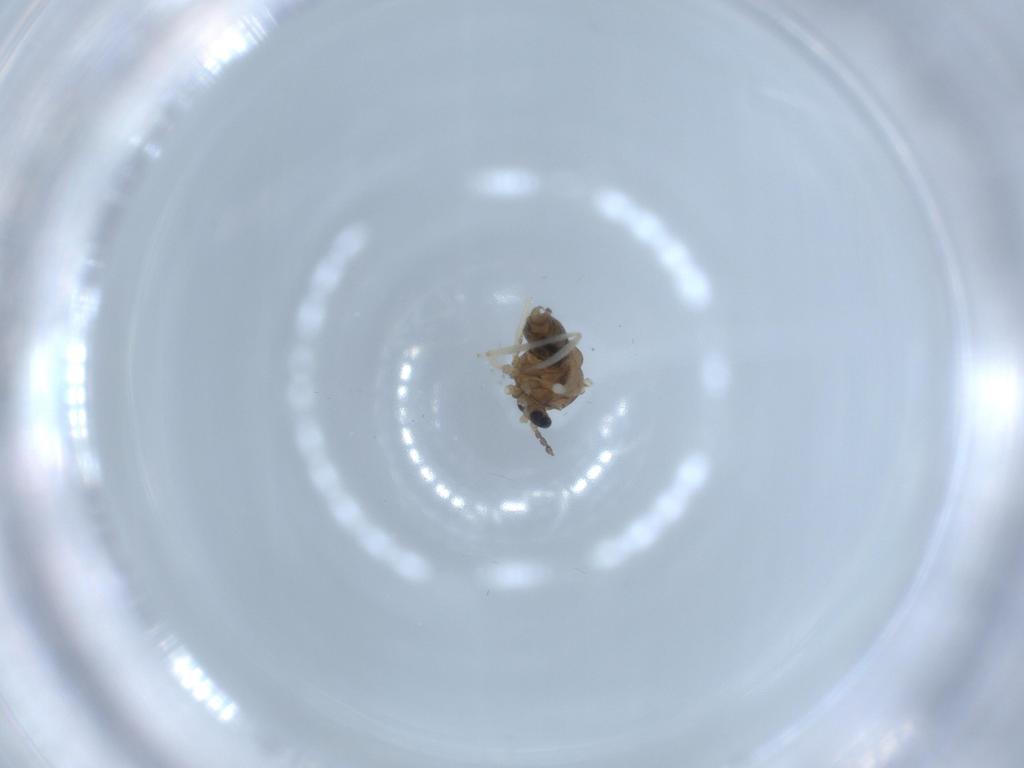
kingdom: Animalia
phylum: Arthropoda
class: Insecta
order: Diptera
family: Cecidomyiidae
